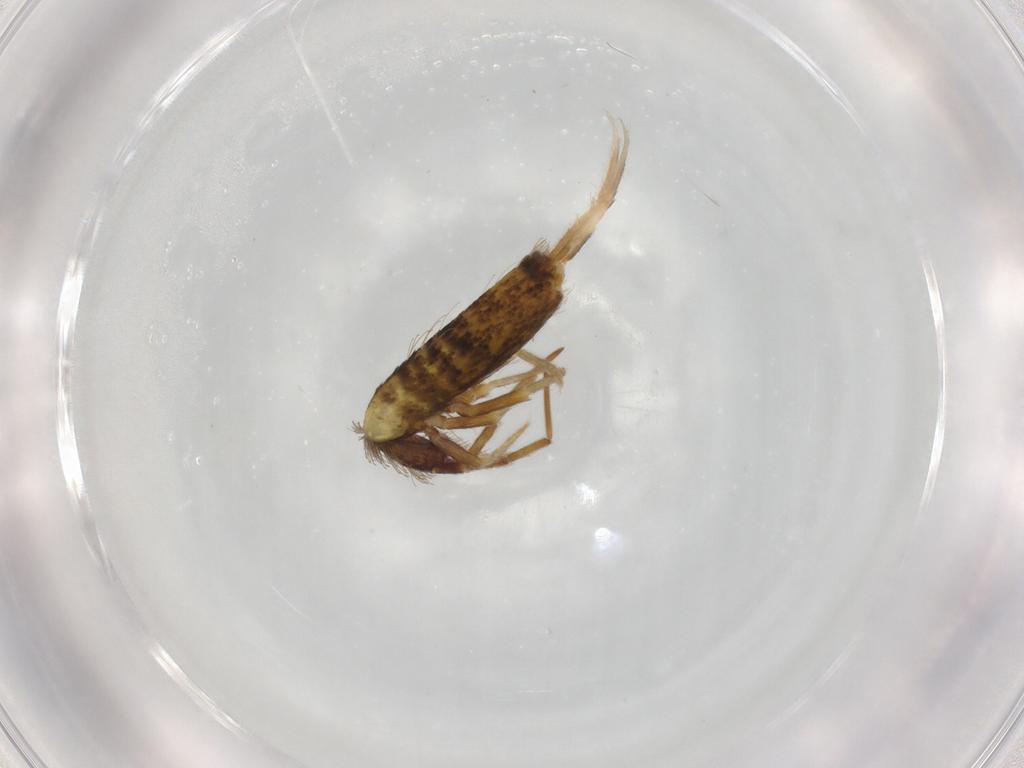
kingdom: Animalia
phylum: Arthropoda
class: Collembola
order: Entomobryomorpha
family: Entomobryidae
